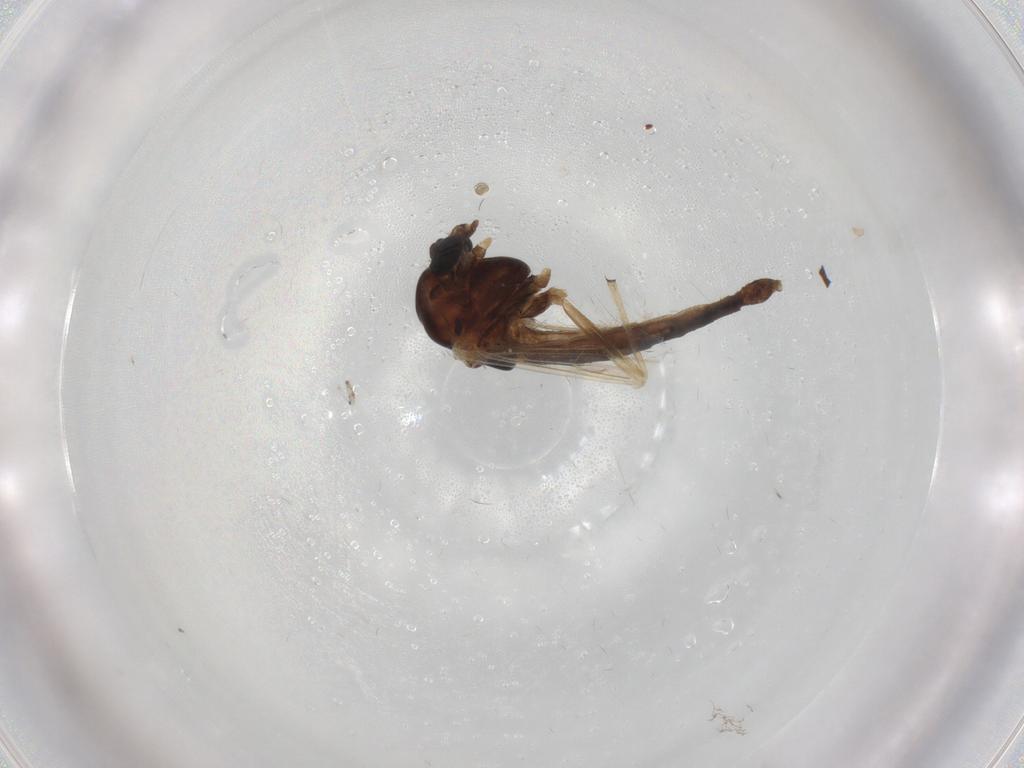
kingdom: Animalia
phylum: Arthropoda
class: Insecta
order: Diptera
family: Chironomidae
